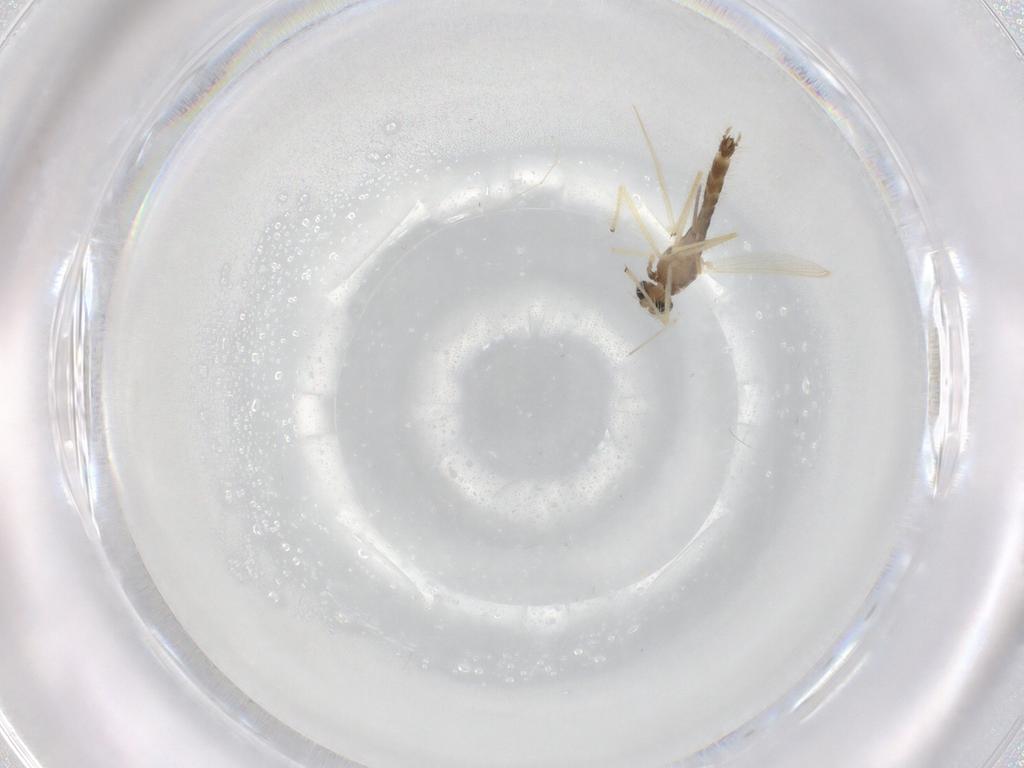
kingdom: Animalia
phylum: Arthropoda
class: Insecta
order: Diptera
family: Chironomidae
